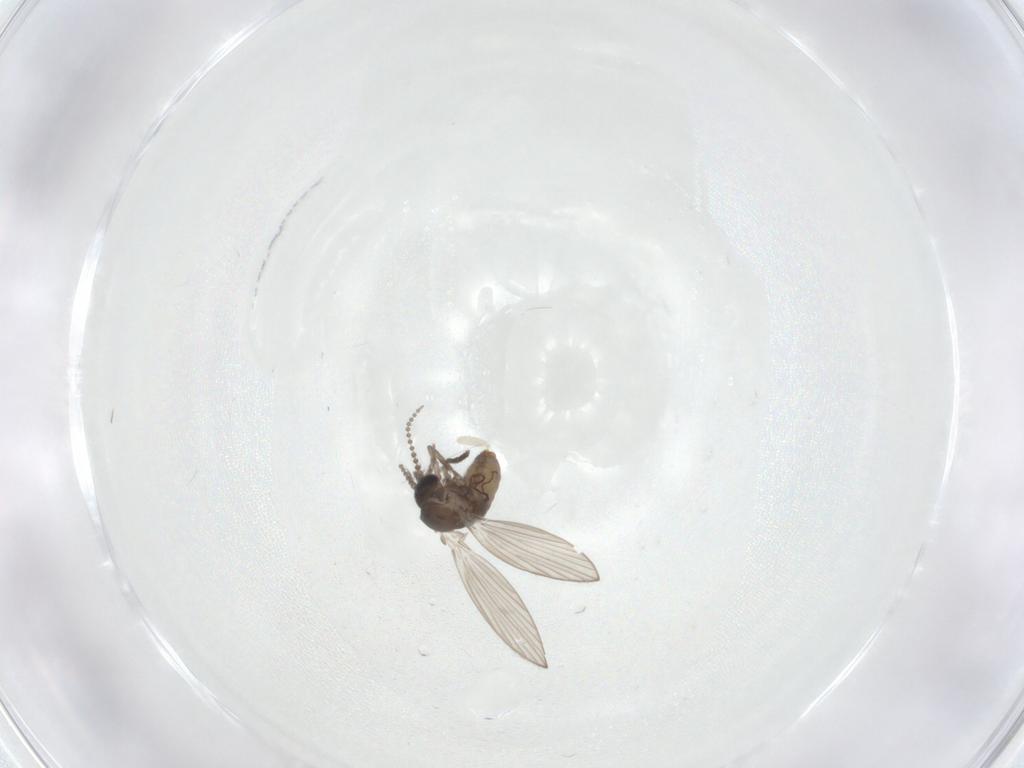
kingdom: Animalia
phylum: Arthropoda
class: Insecta
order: Diptera
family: Psychodidae
